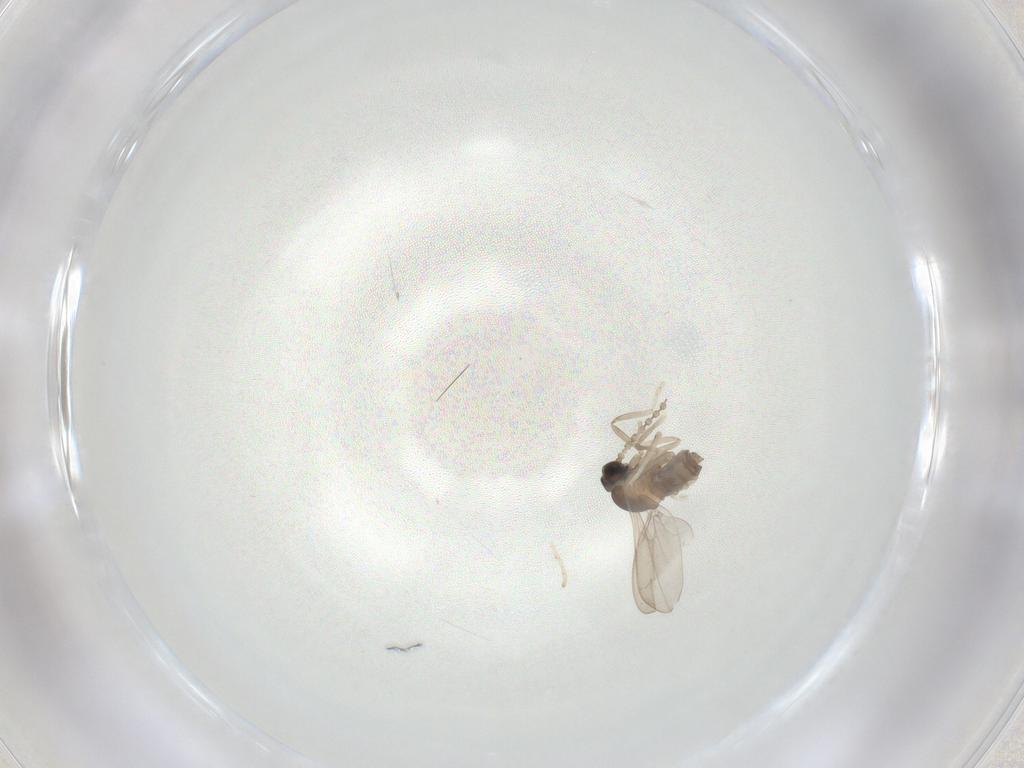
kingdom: Animalia
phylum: Arthropoda
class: Insecta
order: Diptera
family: Cecidomyiidae
